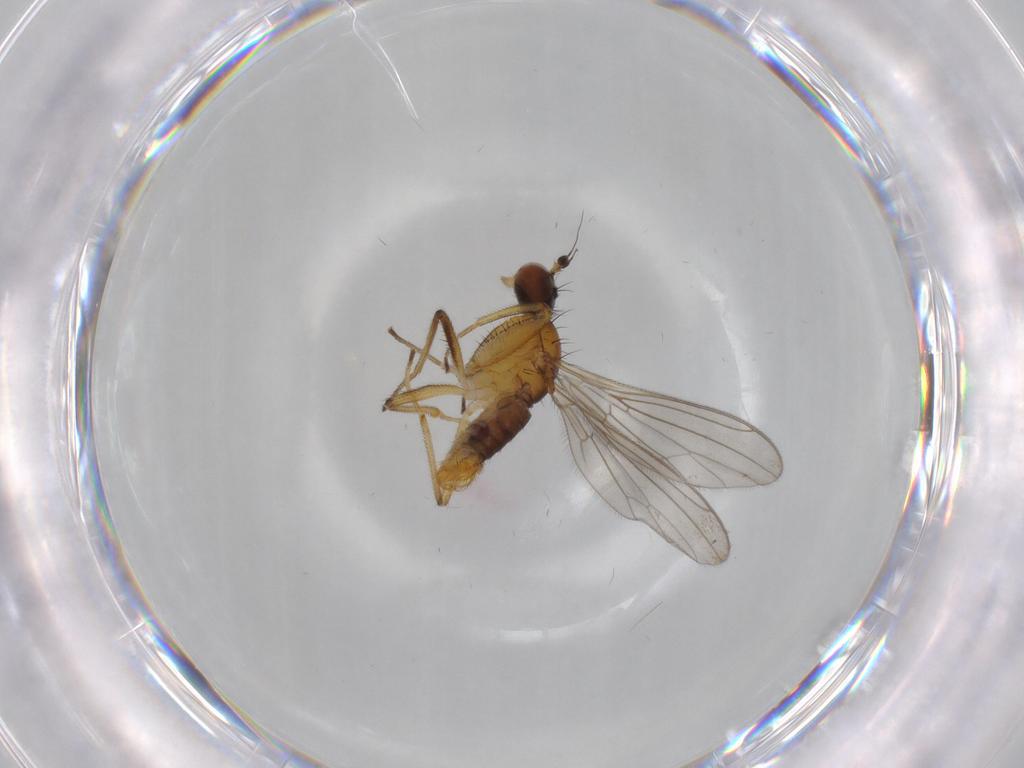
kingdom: Animalia
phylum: Arthropoda
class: Insecta
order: Diptera
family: Empididae
